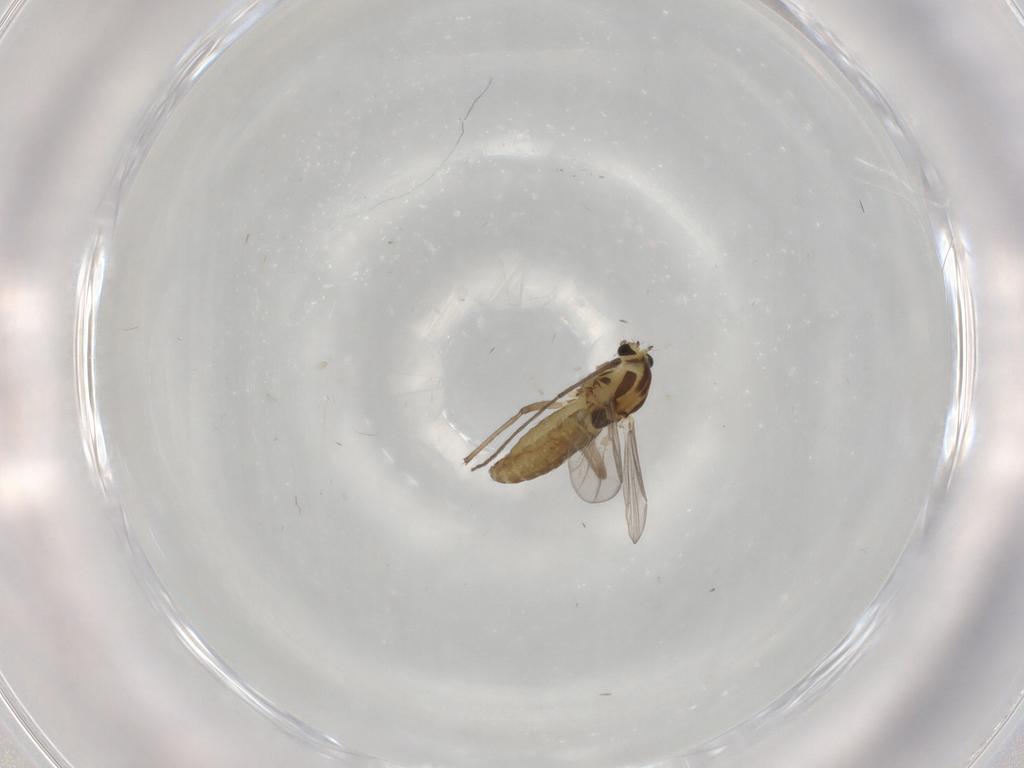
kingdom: Animalia
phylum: Arthropoda
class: Insecta
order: Diptera
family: Chironomidae
